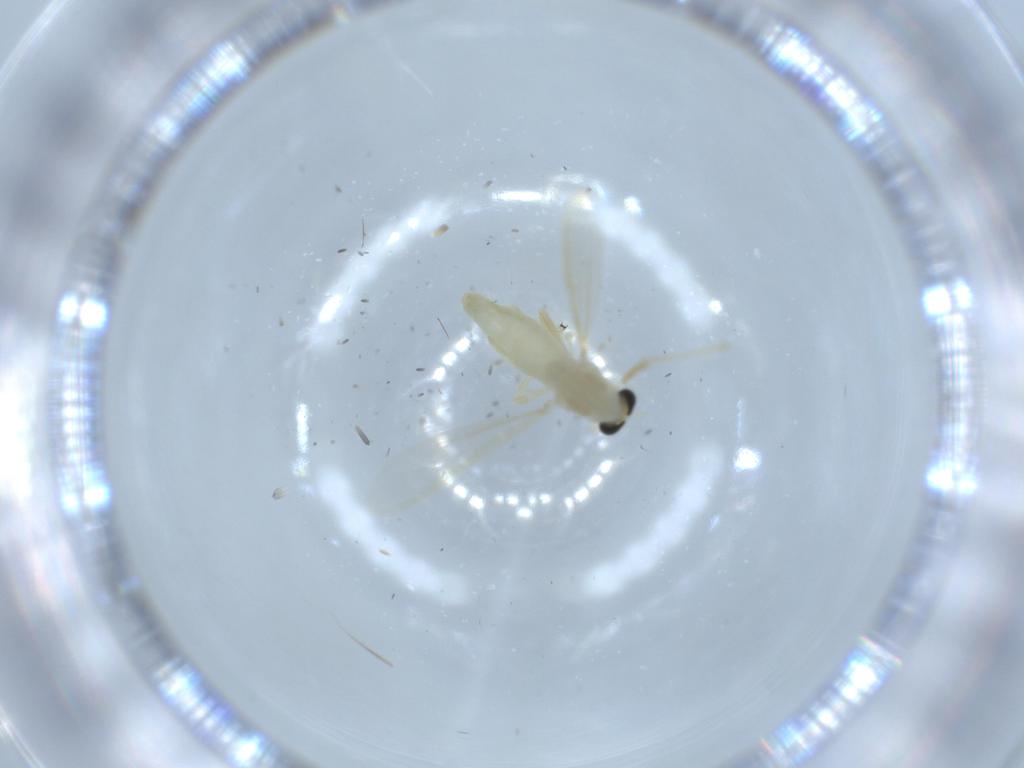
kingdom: Animalia
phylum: Arthropoda
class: Insecta
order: Diptera
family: Chironomidae
